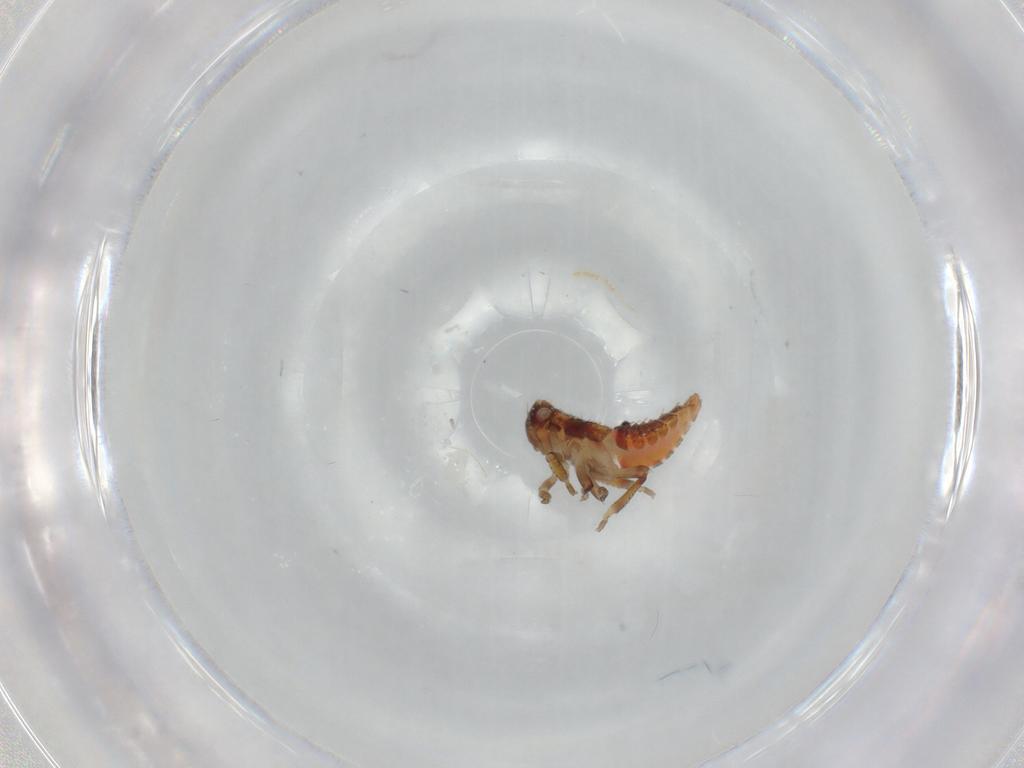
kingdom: Animalia
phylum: Arthropoda
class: Insecta
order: Hemiptera
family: Cicadellidae
